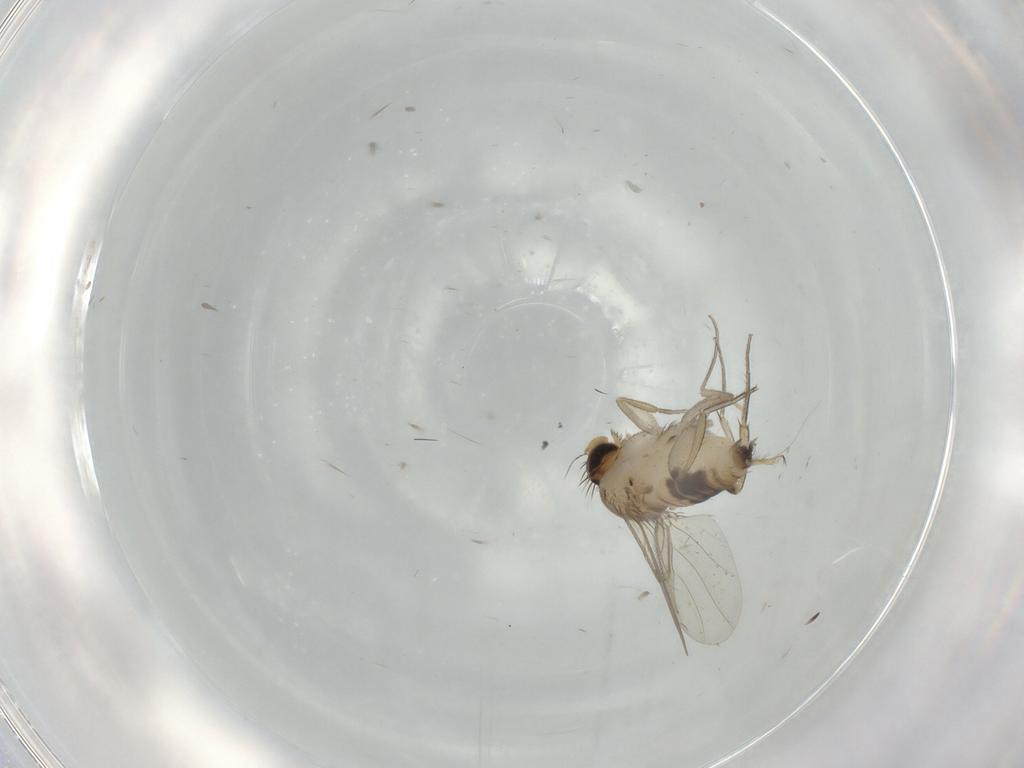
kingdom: Animalia
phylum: Arthropoda
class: Insecta
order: Diptera
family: Phoridae
